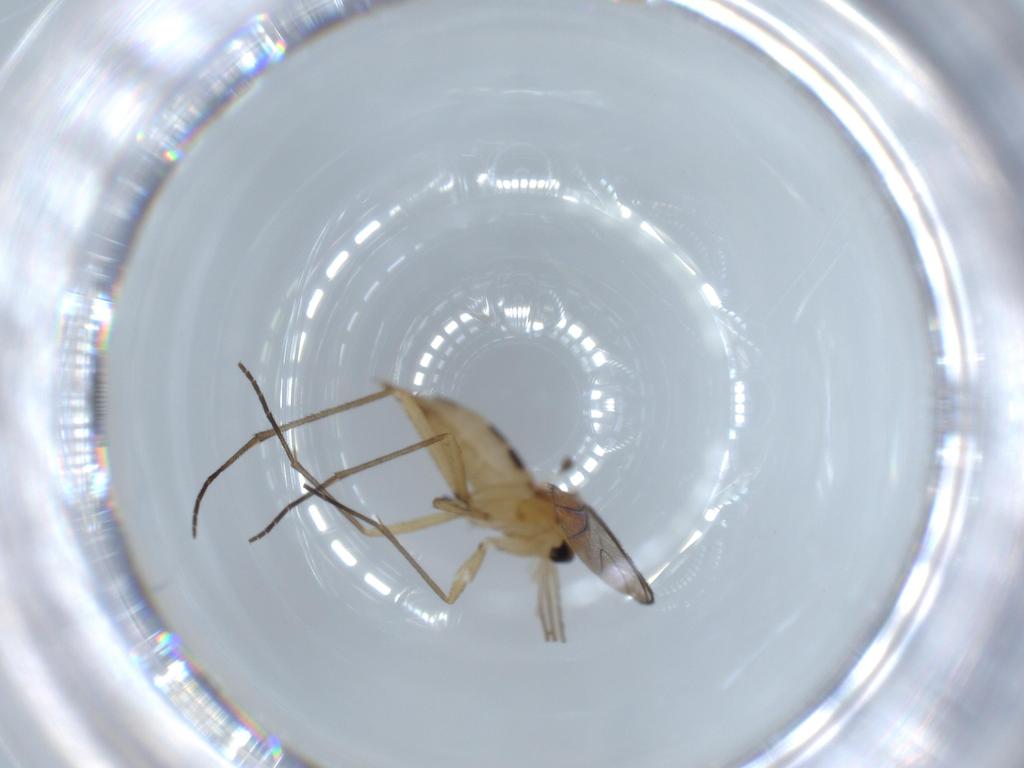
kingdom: Animalia
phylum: Arthropoda
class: Insecta
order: Diptera
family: Sciaridae
